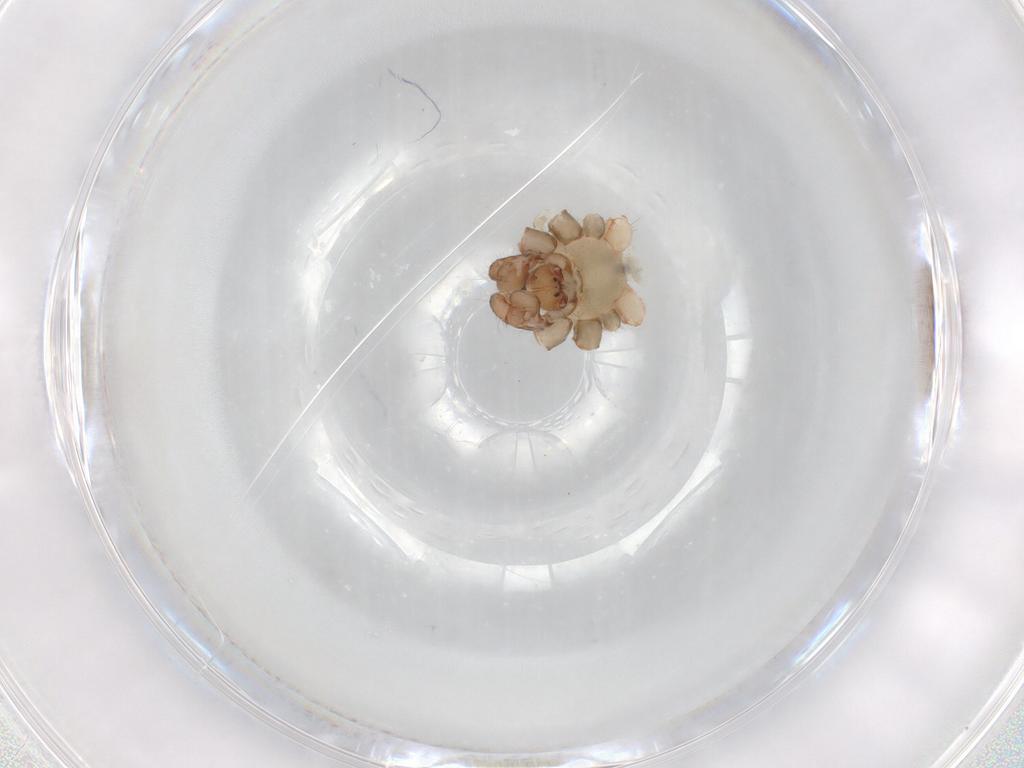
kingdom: Animalia
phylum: Arthropoda
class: Arachnida
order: Araneae
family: Pholcidae
